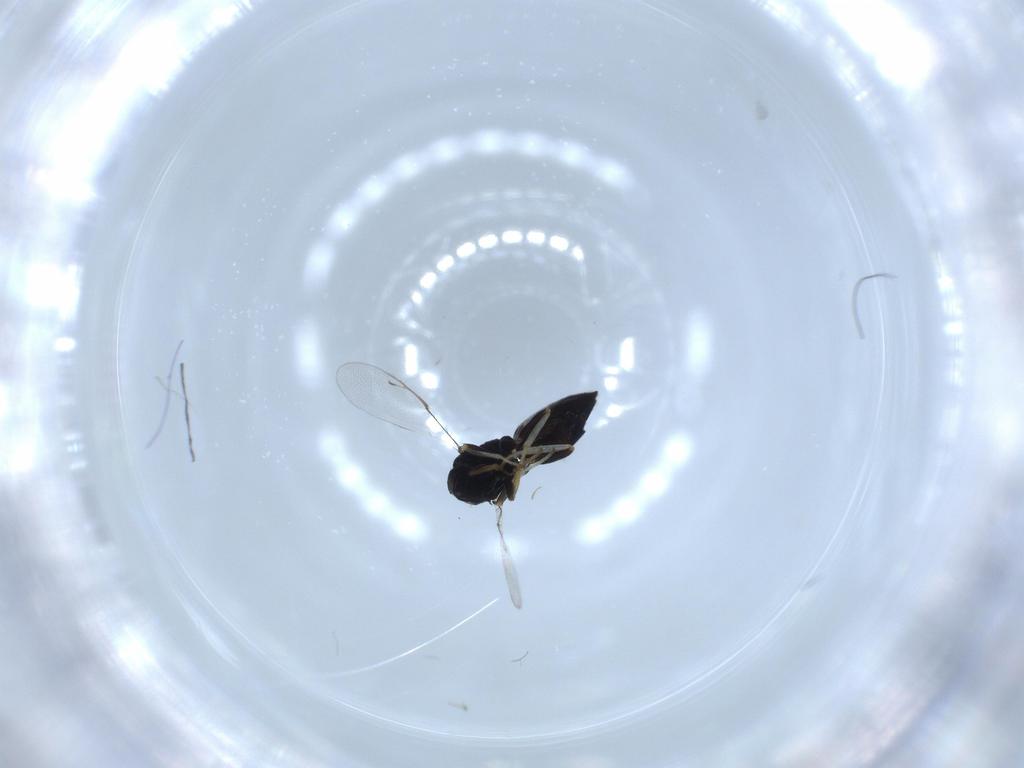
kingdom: Animalia
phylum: Arthropoda
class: Insecta
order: Hymenoptera
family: Pteromalidae
